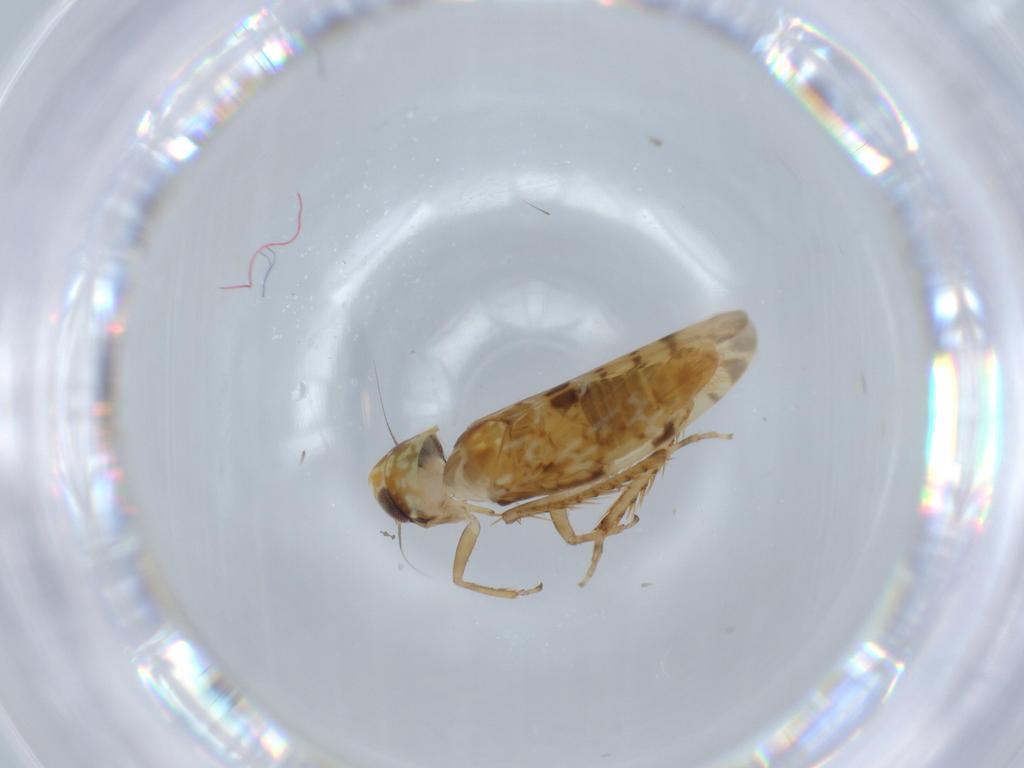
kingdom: Animalia
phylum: Arthropoda
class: Insecta
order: Hemiptera
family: Cicadellidae
